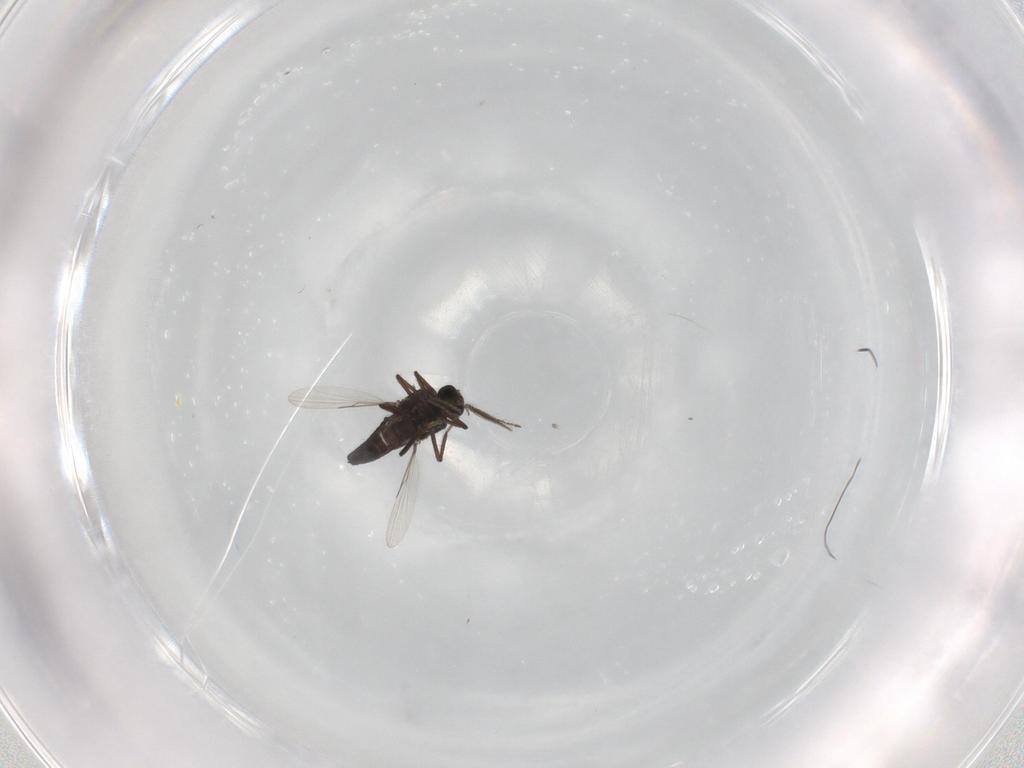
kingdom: Animalia
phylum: Arthropoda
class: Insecta
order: Diptera
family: Ceratopogonidae
